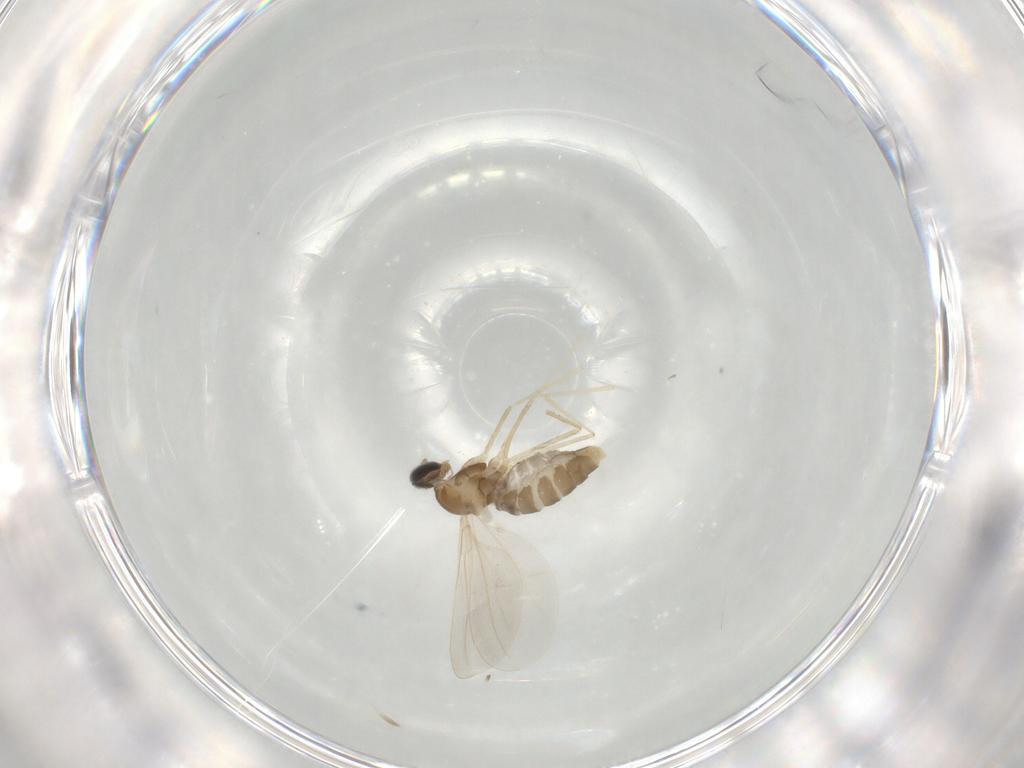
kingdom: Animalia
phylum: Arthropoda
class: Insecta
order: Diptera
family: Cecidomyiidae
